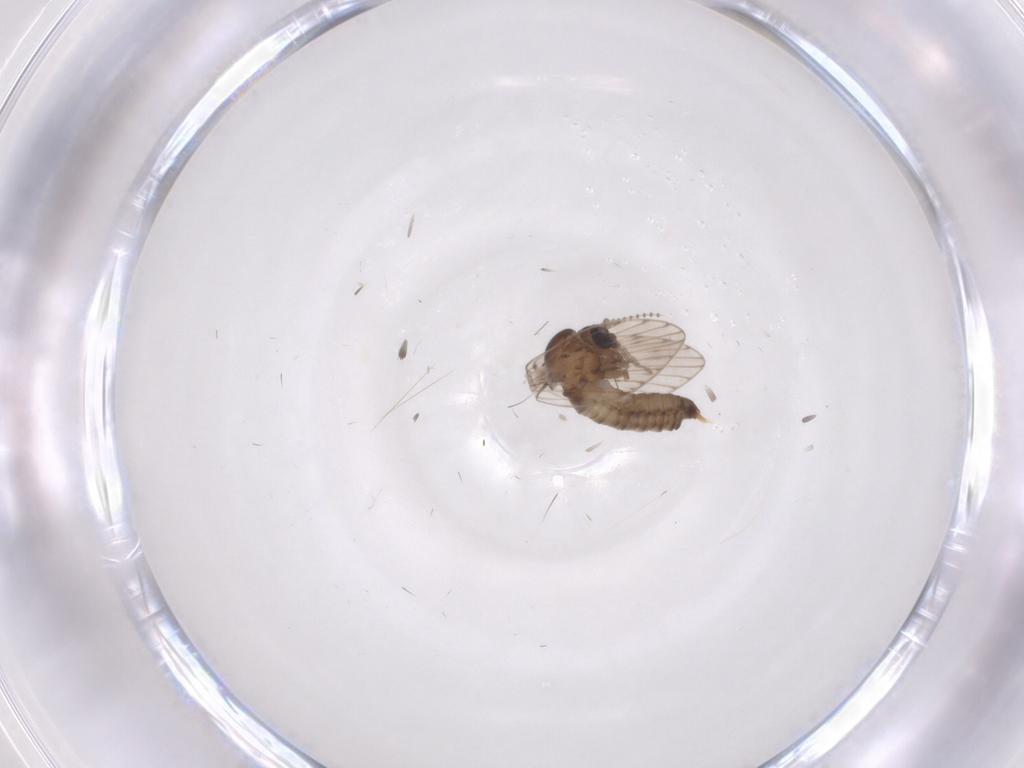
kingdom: Animalia
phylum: Arthropoda
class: Insecta
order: Diptera
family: Psychodidae
